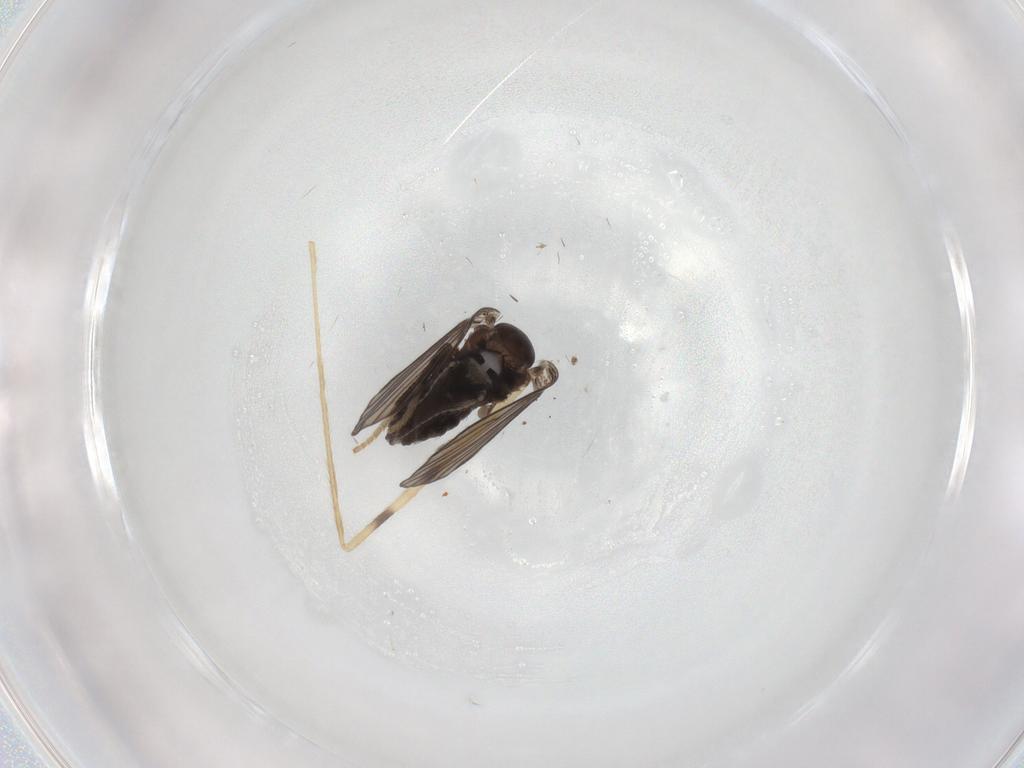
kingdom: Animalia
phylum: Arthropoda
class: Insecta
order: Diptera
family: Psychodidae
